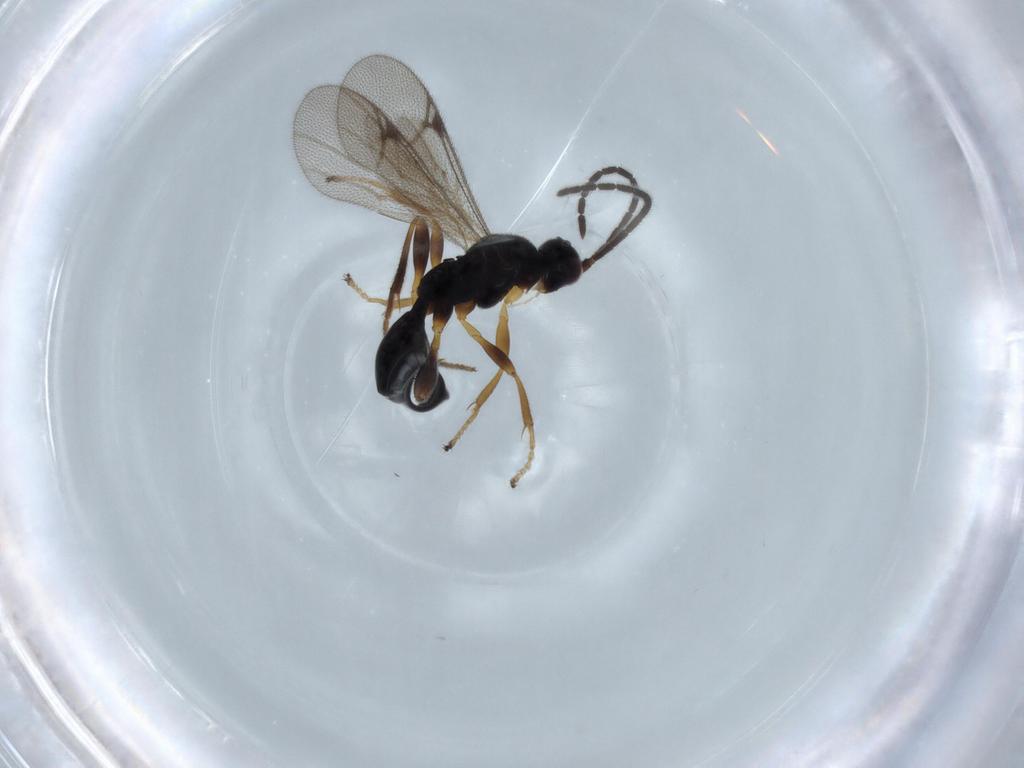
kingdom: Animalia
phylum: Arthropoda
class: Insecta
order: Hymenoptera
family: Proctotrupidae
